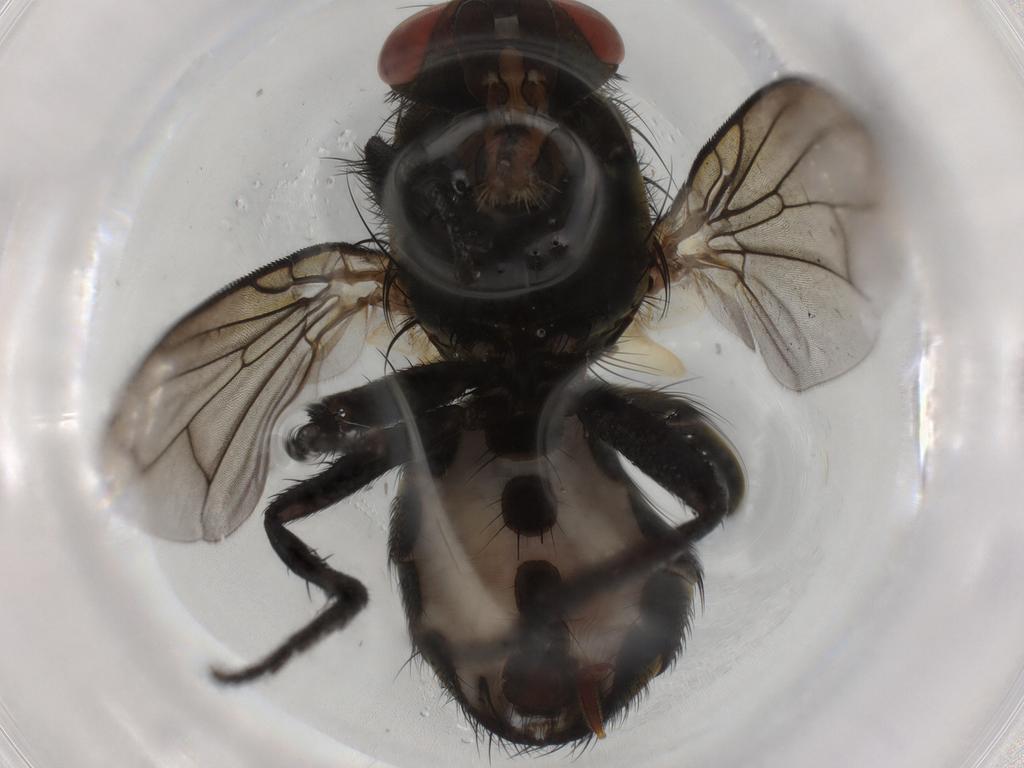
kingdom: Animalia
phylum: Arthropoda
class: Insecta
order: Diptera
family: Psychodidae
